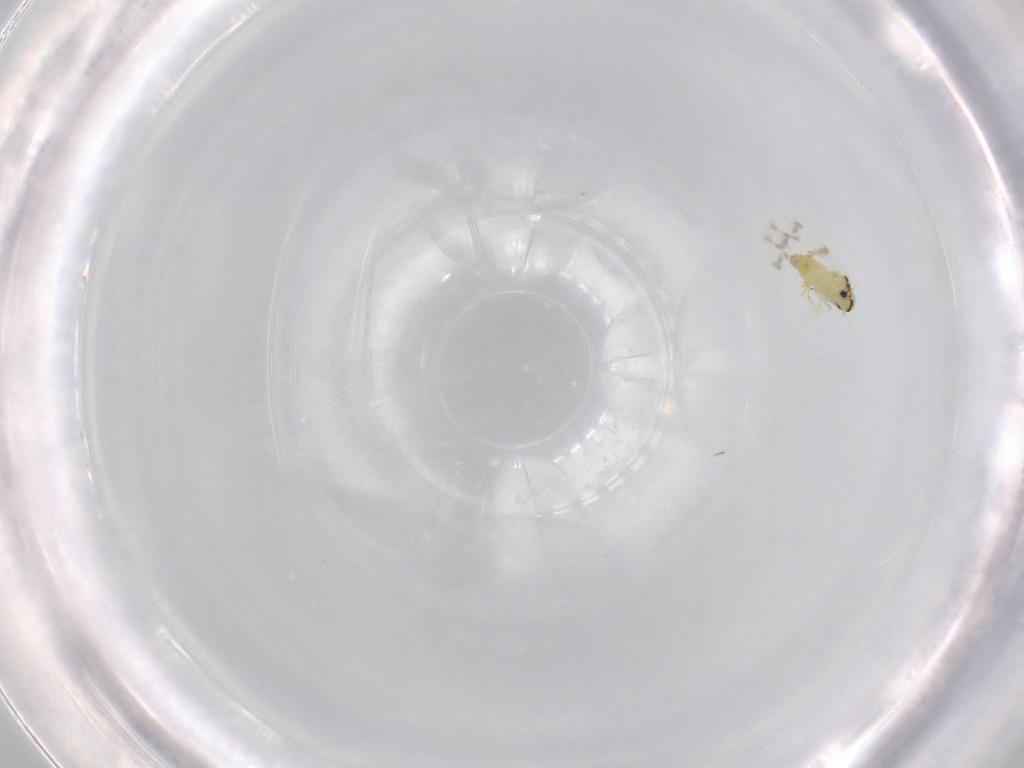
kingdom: Animalia
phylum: Arthropoda
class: Insecta
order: Hemiptera
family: Aleyrodidae
